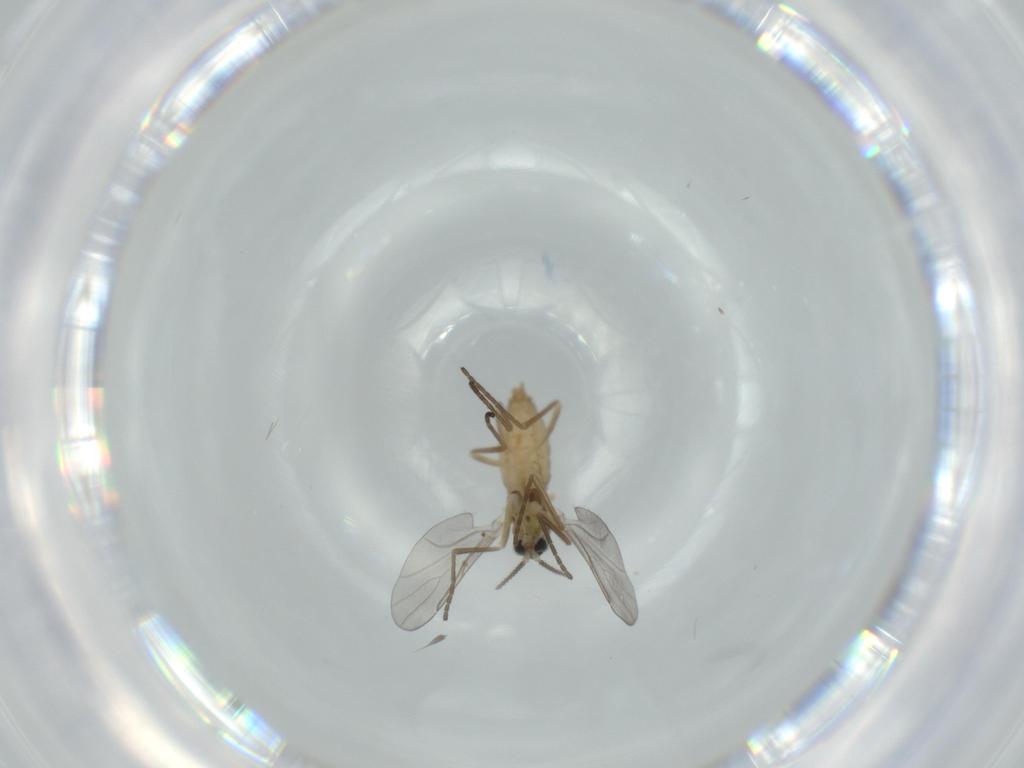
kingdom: Animalia
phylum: Arthropoda
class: Insecta
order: Diptera
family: Cecidomyiidae
